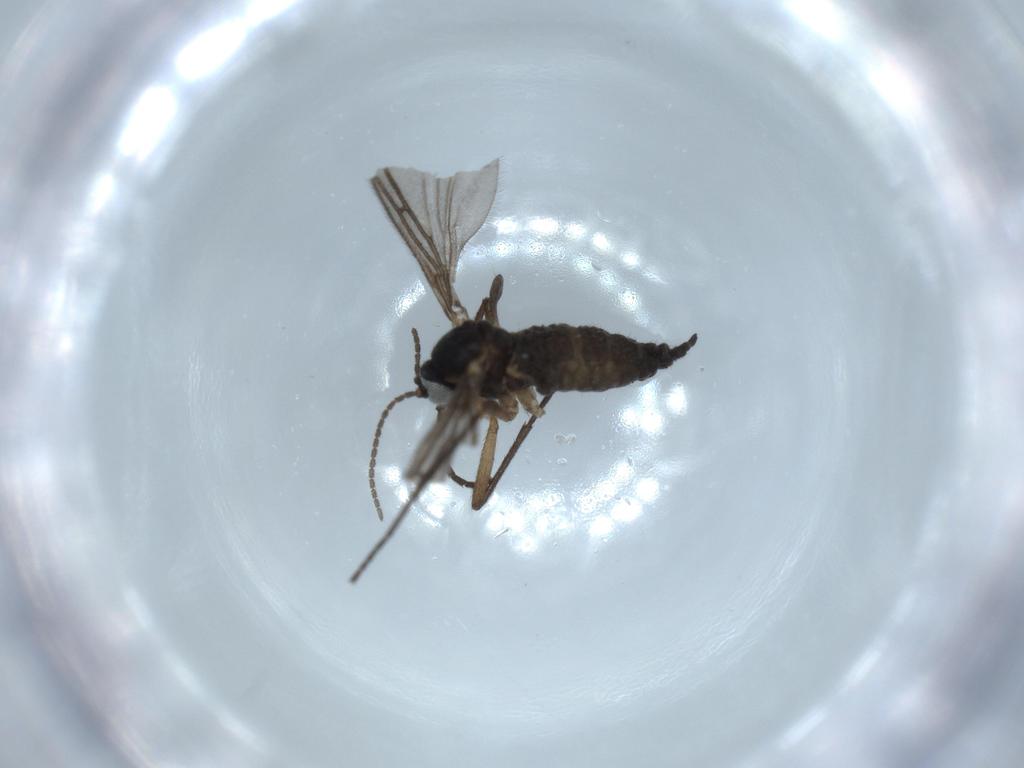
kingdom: Animalia
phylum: Arthropoda
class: Insecta
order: Diptera
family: Sciaridae
